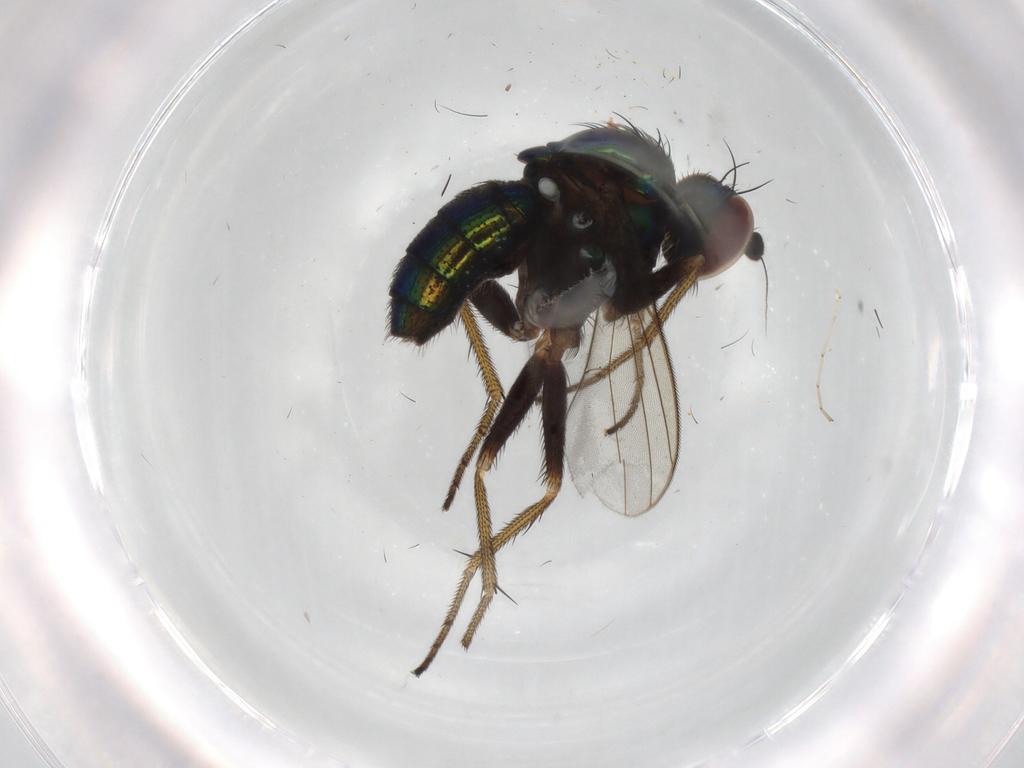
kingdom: Animalia
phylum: Arthropoda
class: Insecta
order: Diptera
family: Dolichopodidae
